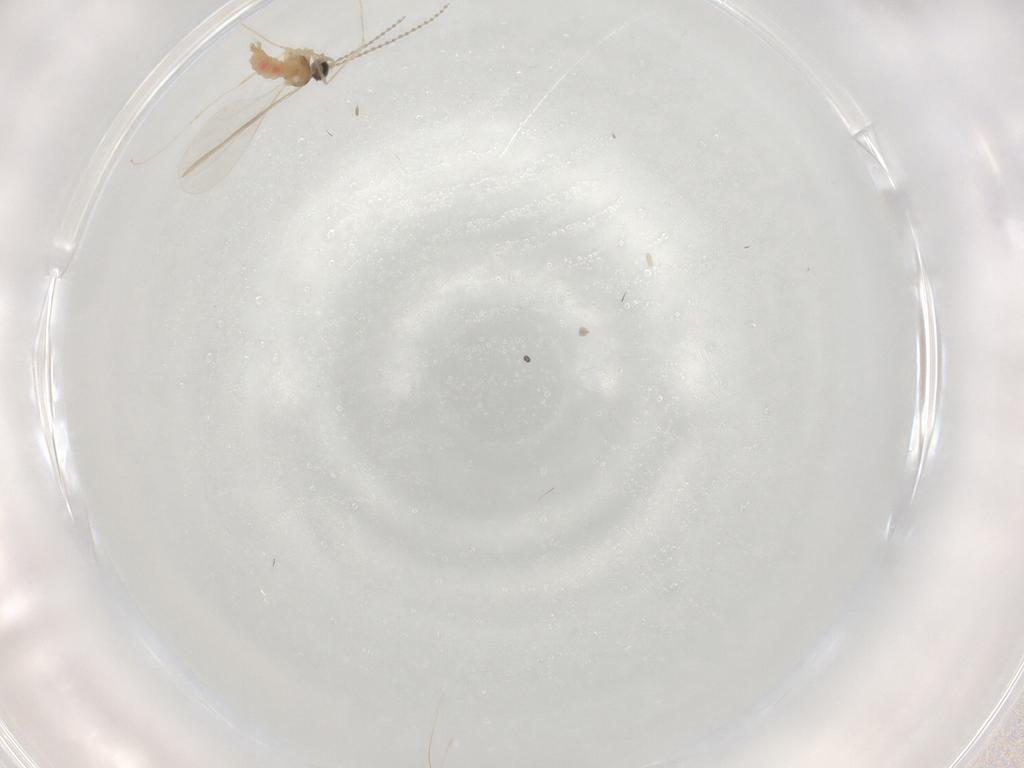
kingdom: Animalia
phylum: Arthropoda
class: Insecta
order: Diptera
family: Cecidomyiidae
